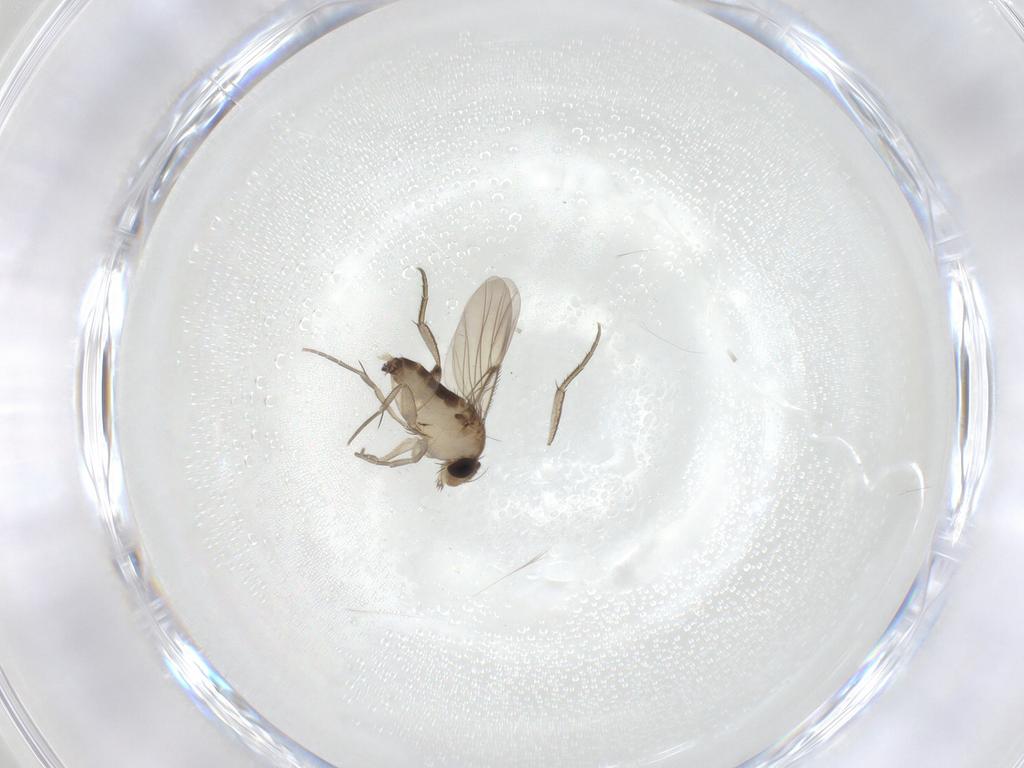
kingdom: Animalia
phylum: Arthropoda
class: Insecta
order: Diptera
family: Phoridae
